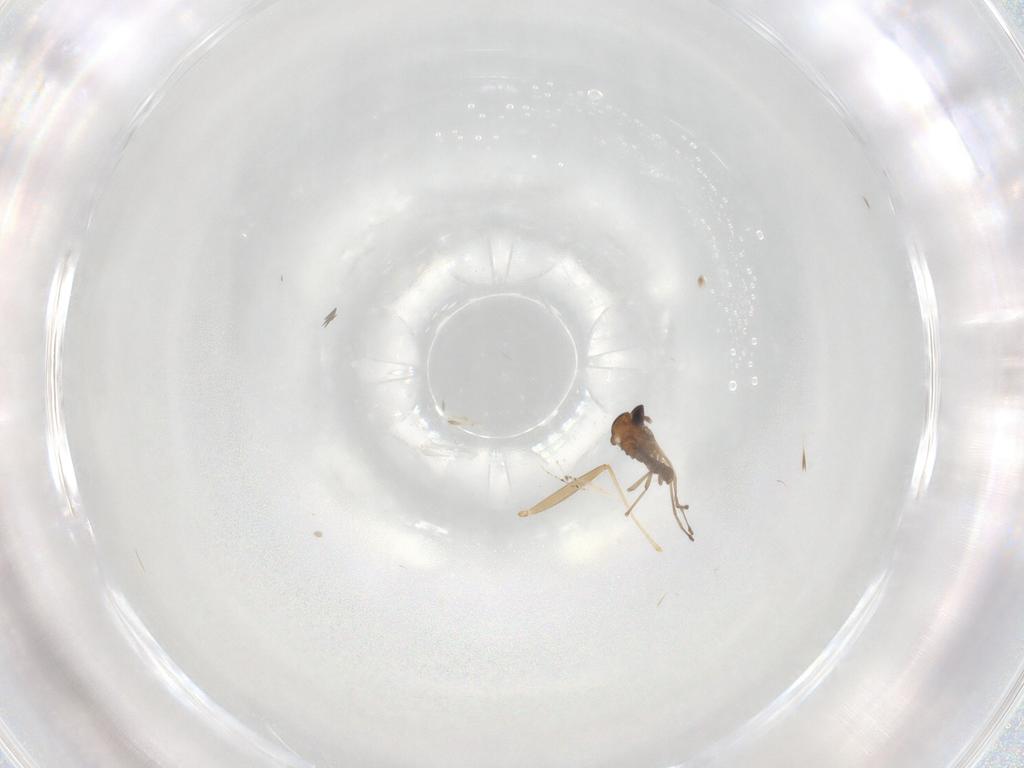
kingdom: Animalia
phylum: Arthropoda
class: Insecta
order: Diptera
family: Cecidomyiidae
